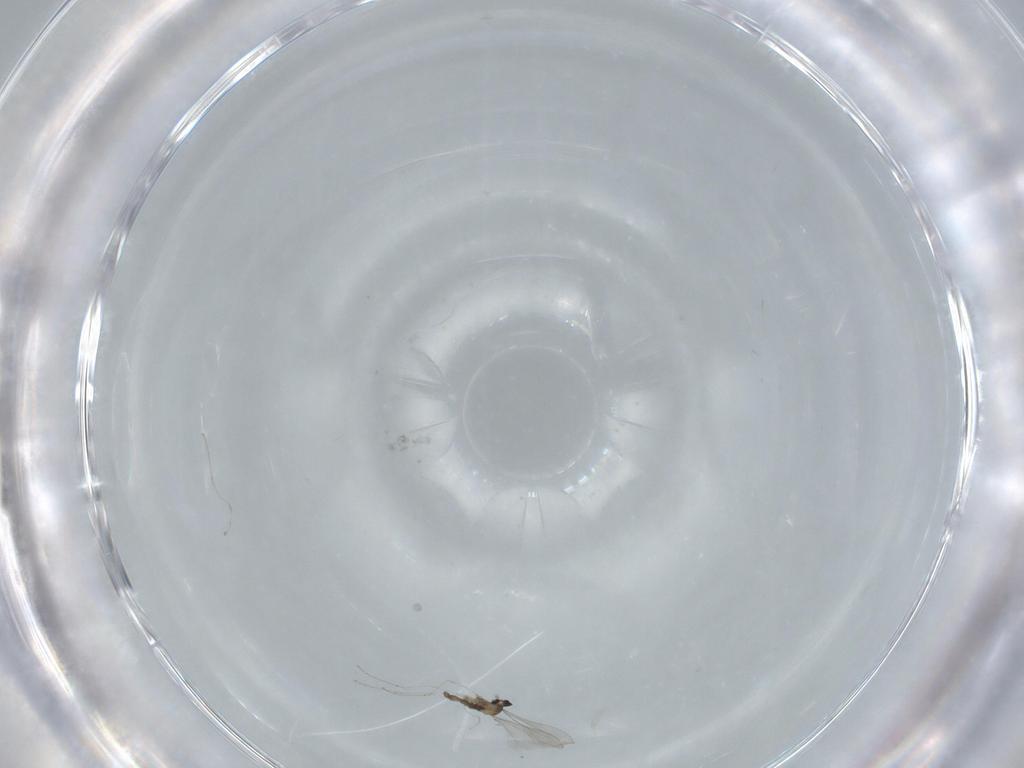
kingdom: Animalia
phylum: Arthropoda
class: Insecta
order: Diptera
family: Cecidomyiidae
